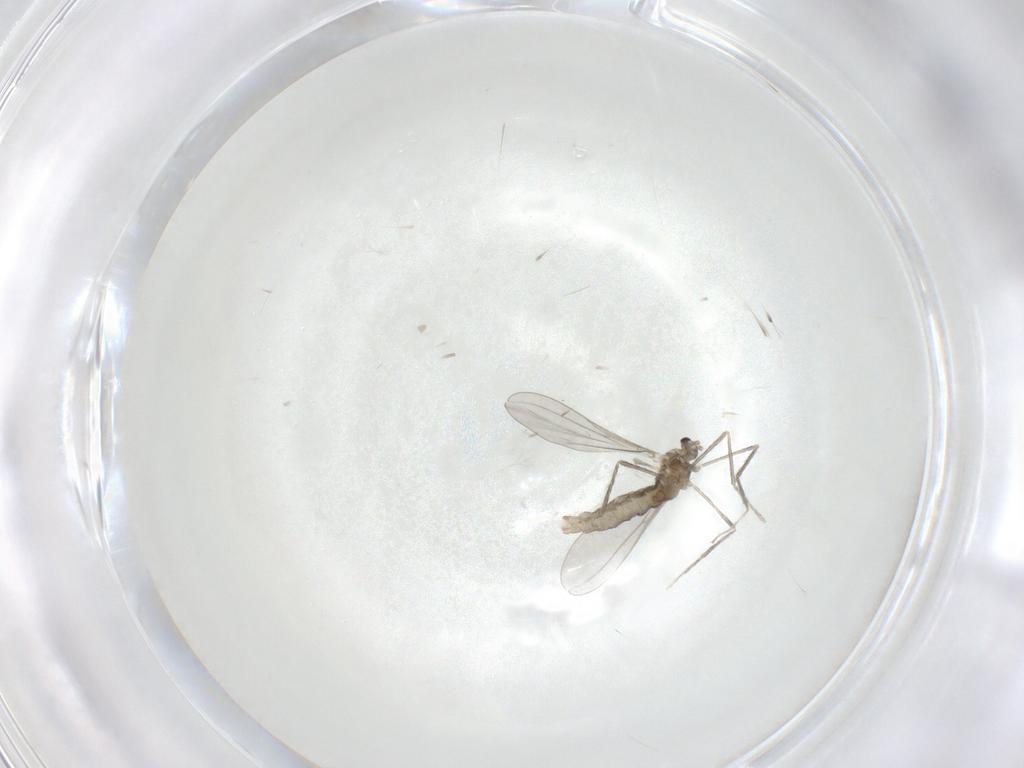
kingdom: Animalia
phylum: Arthropoda
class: Insecta
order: Diptera
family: Cecidomyiidae
